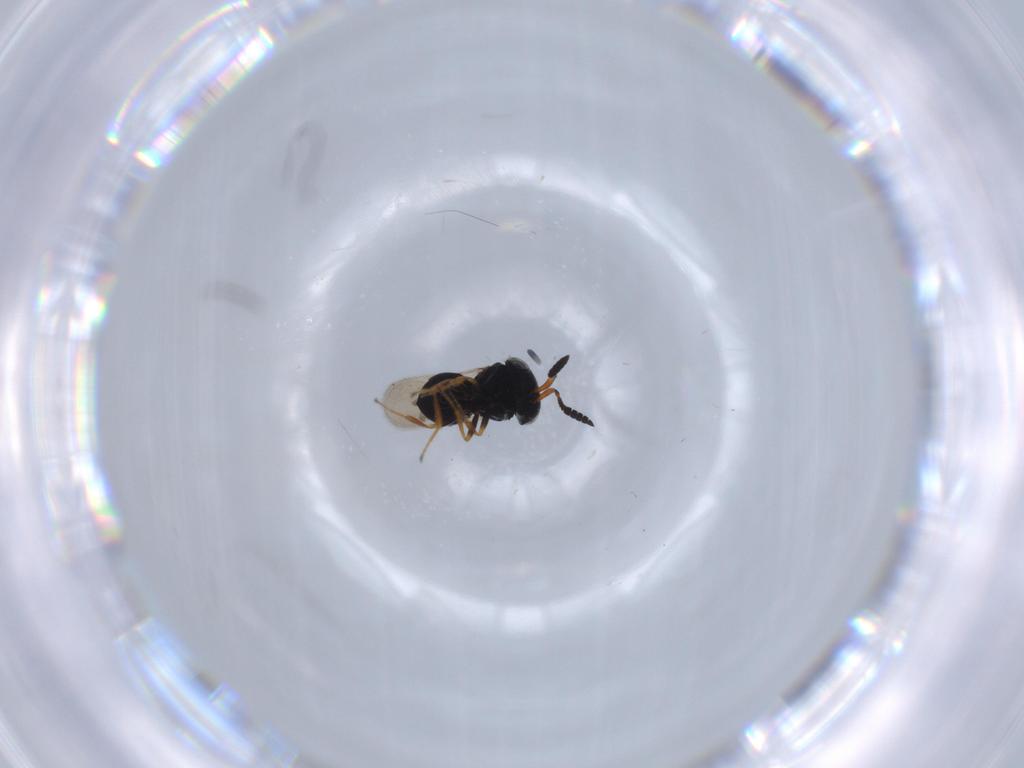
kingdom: Animalia
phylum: Arthropoda
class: Insecta
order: Hymenoptera
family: Scelionidae
